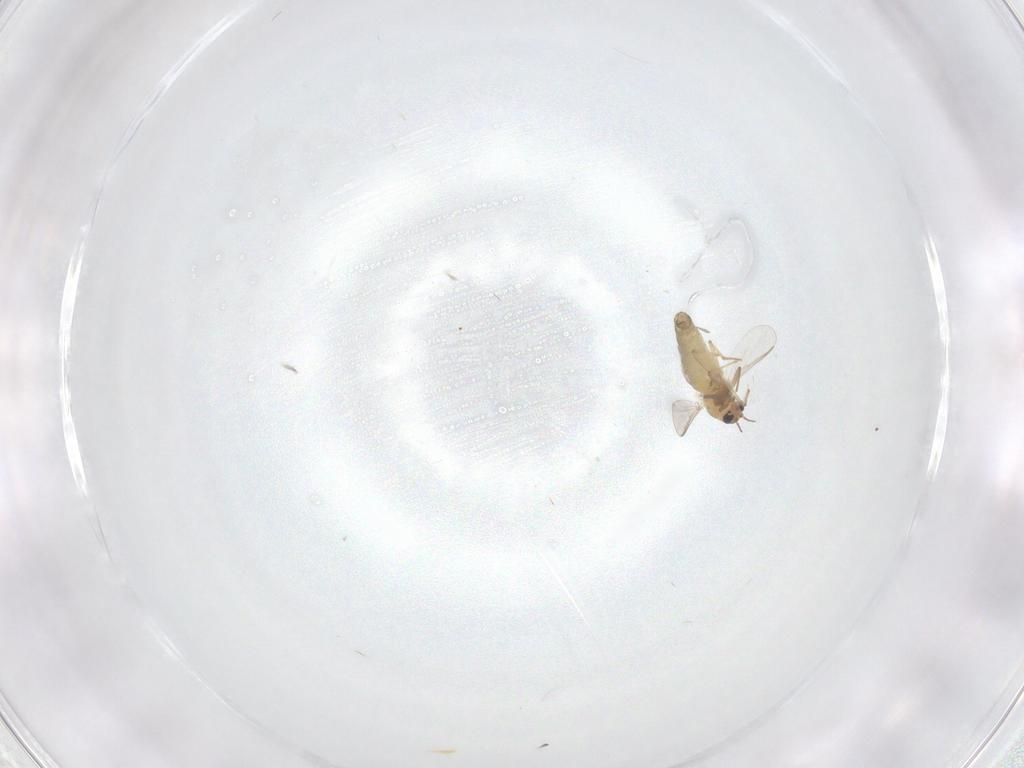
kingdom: Animalia
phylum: Arthropoda
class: Insecta
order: Diptera
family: Chironomidae
